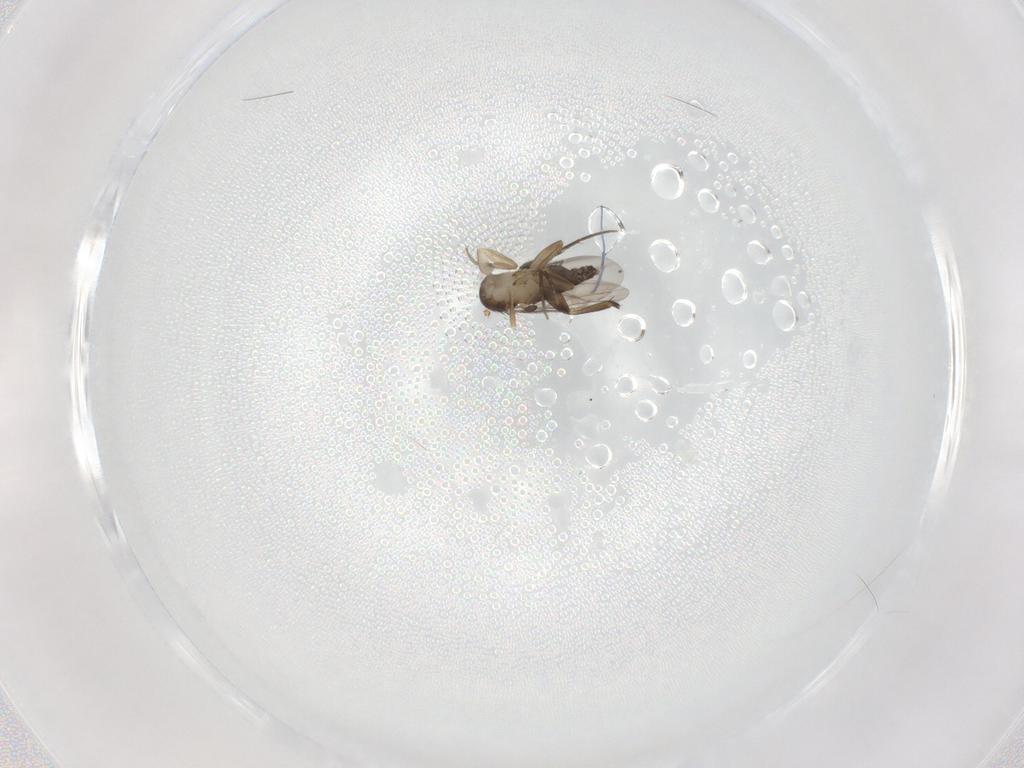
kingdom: Animalia
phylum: Arthropoda
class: Insecta
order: Diptera
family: Phoridae
